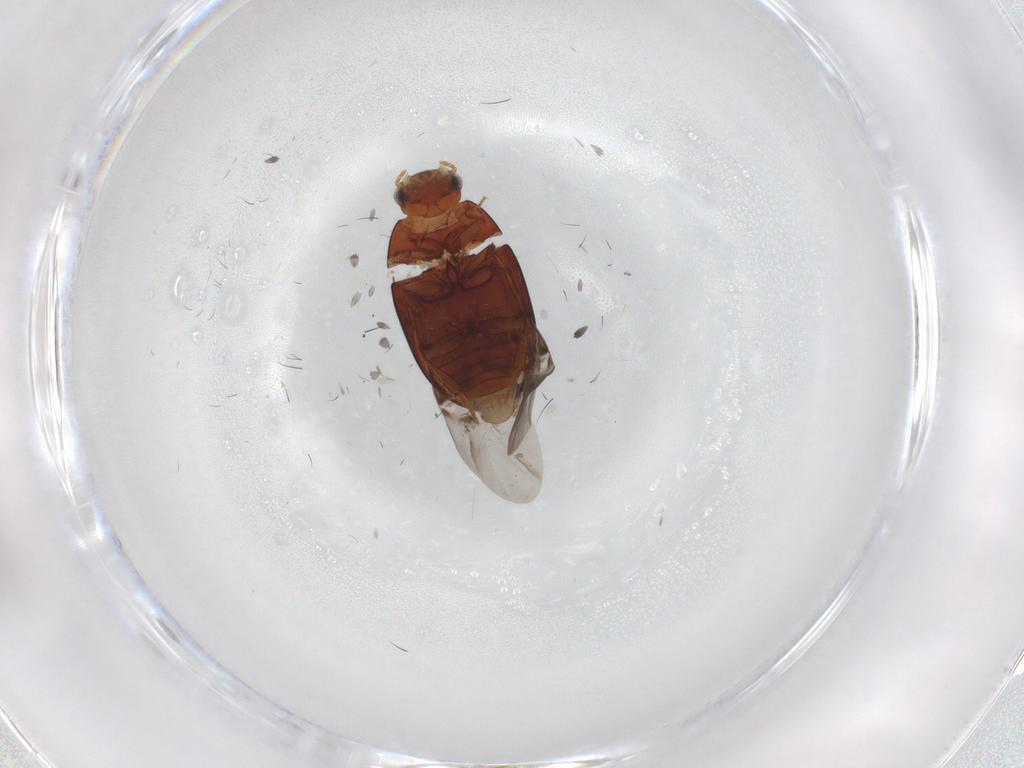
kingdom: Animalia
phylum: Arthropoda
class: Insecta
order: Coleoptera
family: Hydrophilidae
